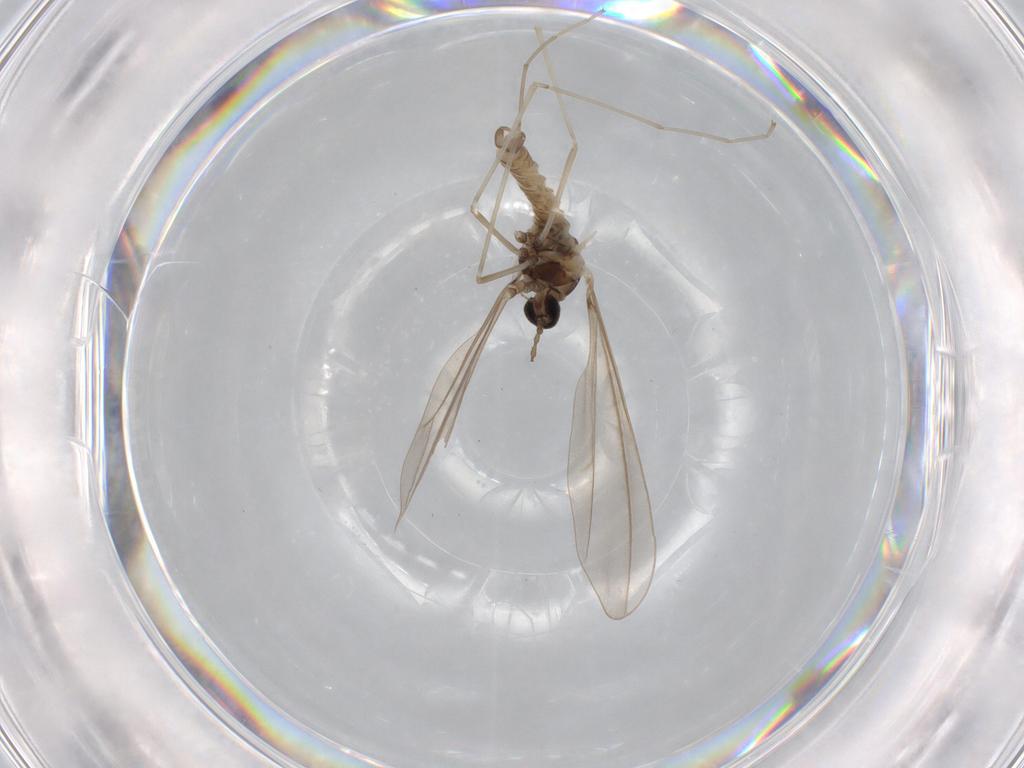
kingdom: Animalia
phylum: Arthropoda
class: Insecta
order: Diptera
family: Cecidomyiidae
